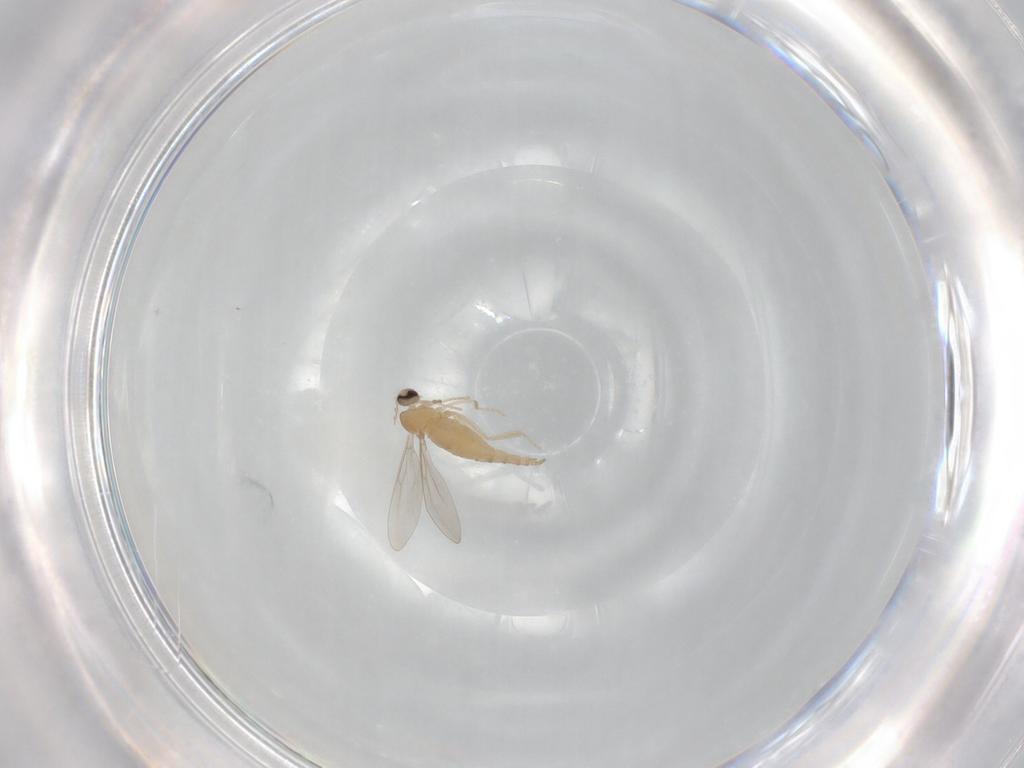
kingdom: Animalia
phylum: Arthropoda
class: Insecta
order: Diptera
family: Cecidomyiidae
